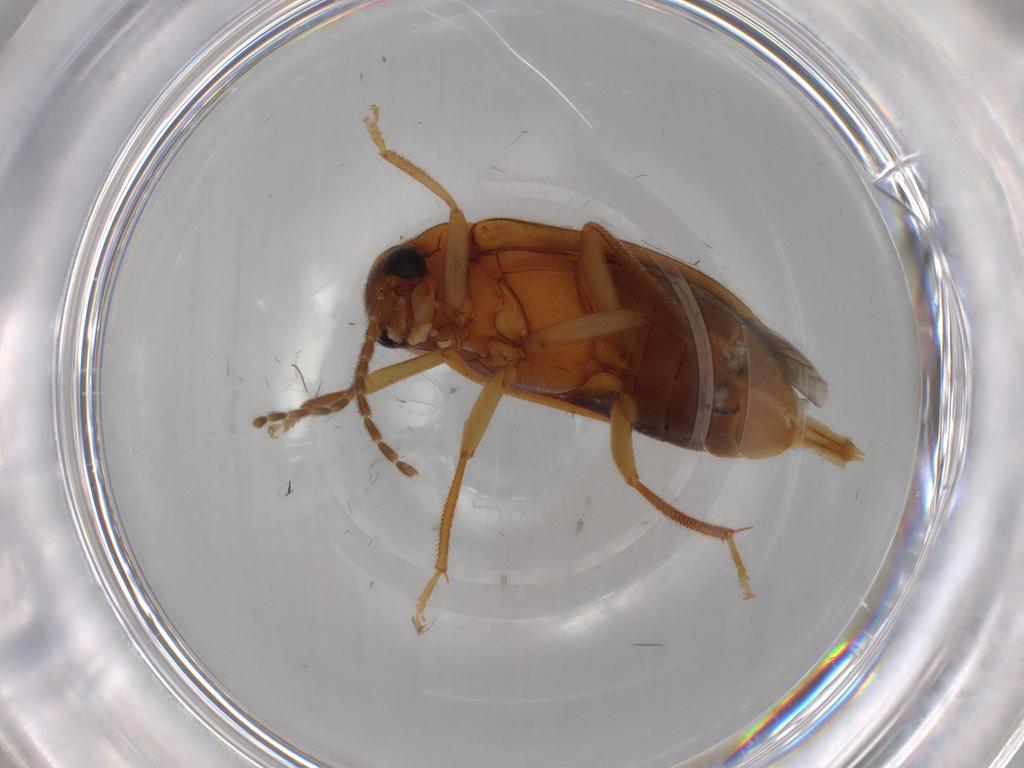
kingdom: Animalia
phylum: Arthropoda
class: Insecta
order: Coleoptera
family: Ptilodactylidae
